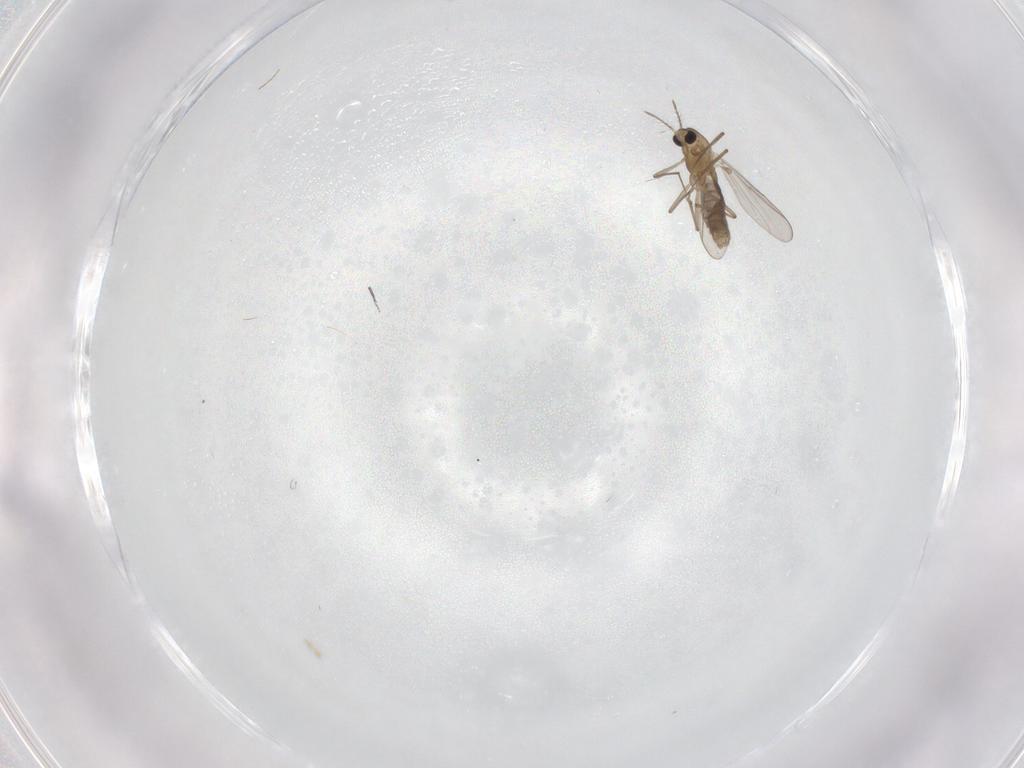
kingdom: Animalia
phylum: Arthropoda
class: Insecta
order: Diptera
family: Chironomidae
